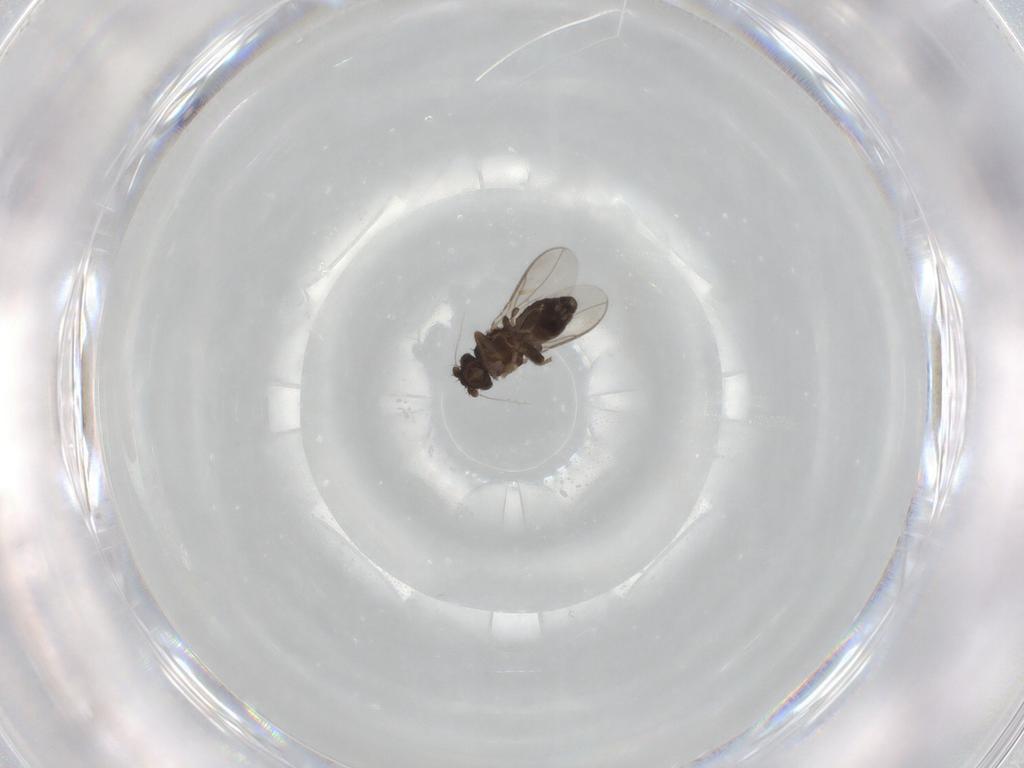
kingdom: Animalia
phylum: Arthropoda
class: Insecta
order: Diptera
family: Sphaeroceridae
